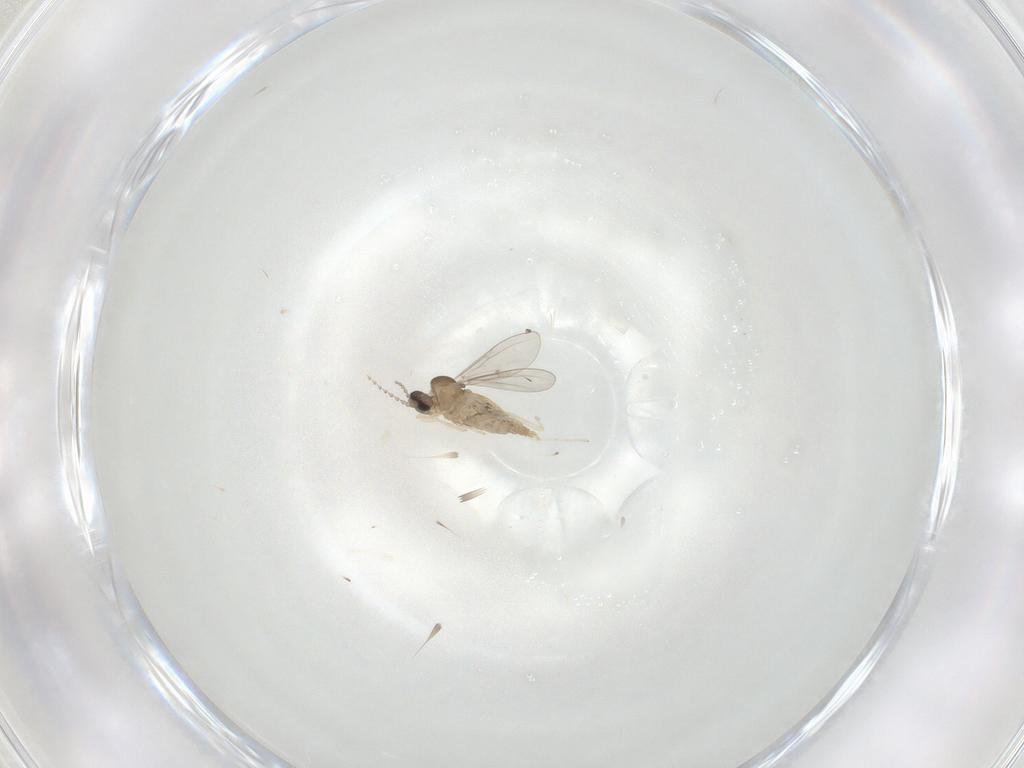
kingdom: Animalia
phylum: Arthropoda
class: Insecta
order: Diptera
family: Cecidomyiidae
